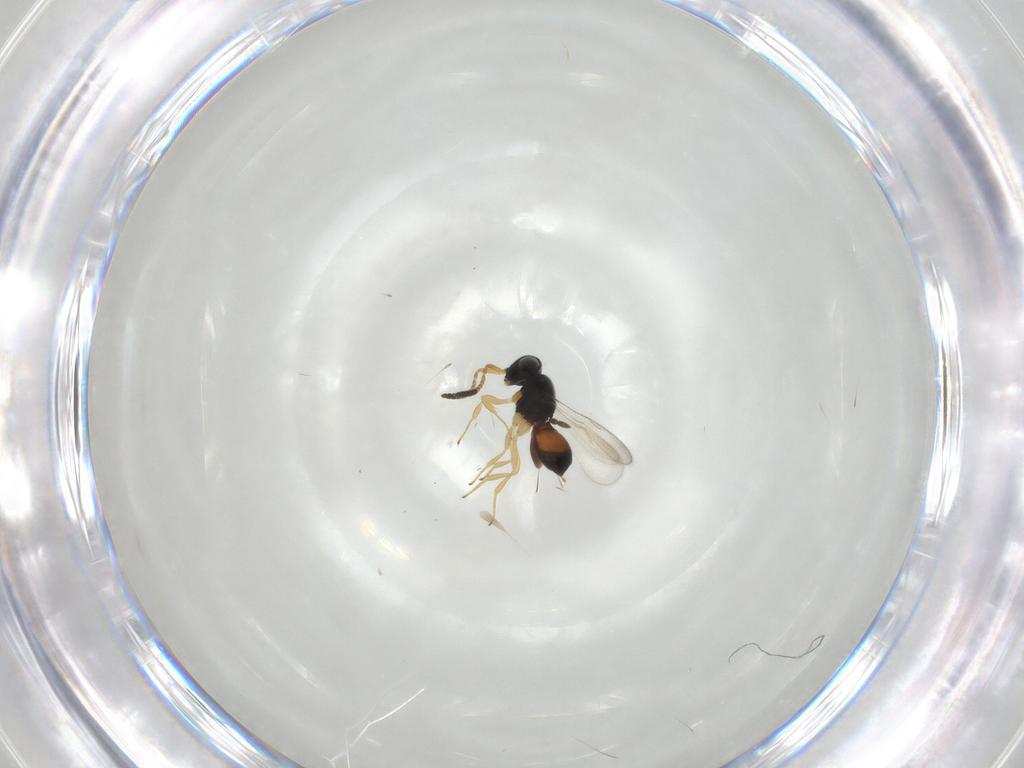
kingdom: Animalia
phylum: Arthropoda
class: Insecta
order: Hymenoptera
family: Braconidae
